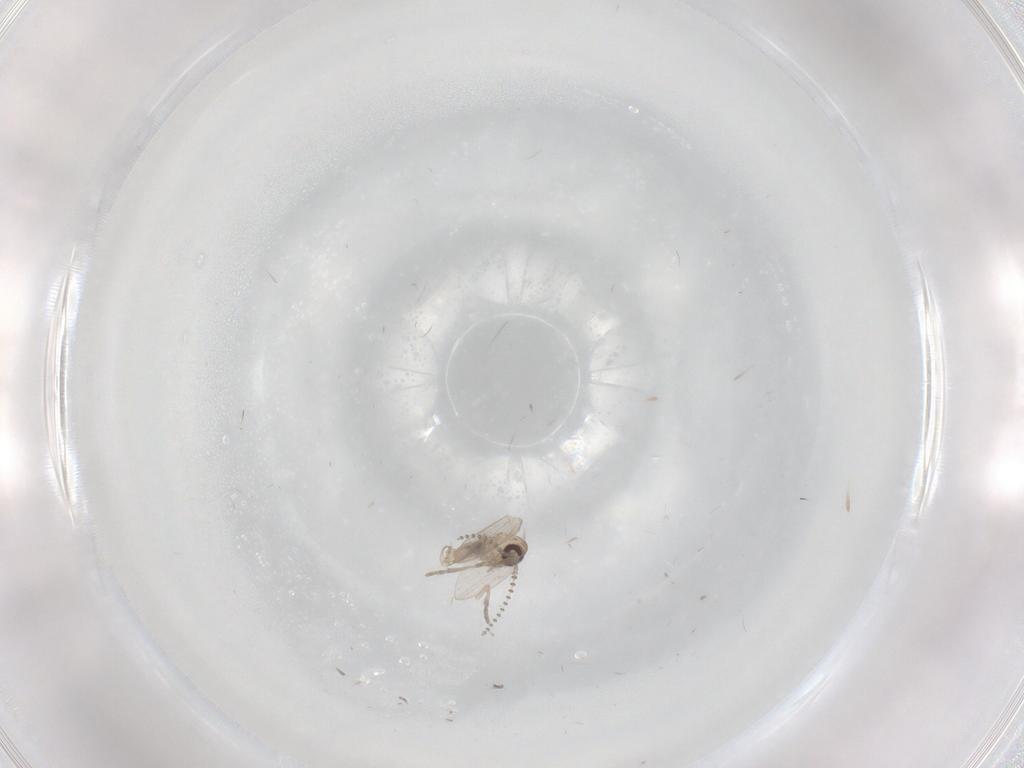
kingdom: Animalia
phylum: Arthropoda
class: Insecta
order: Diptera
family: Psychodidae
